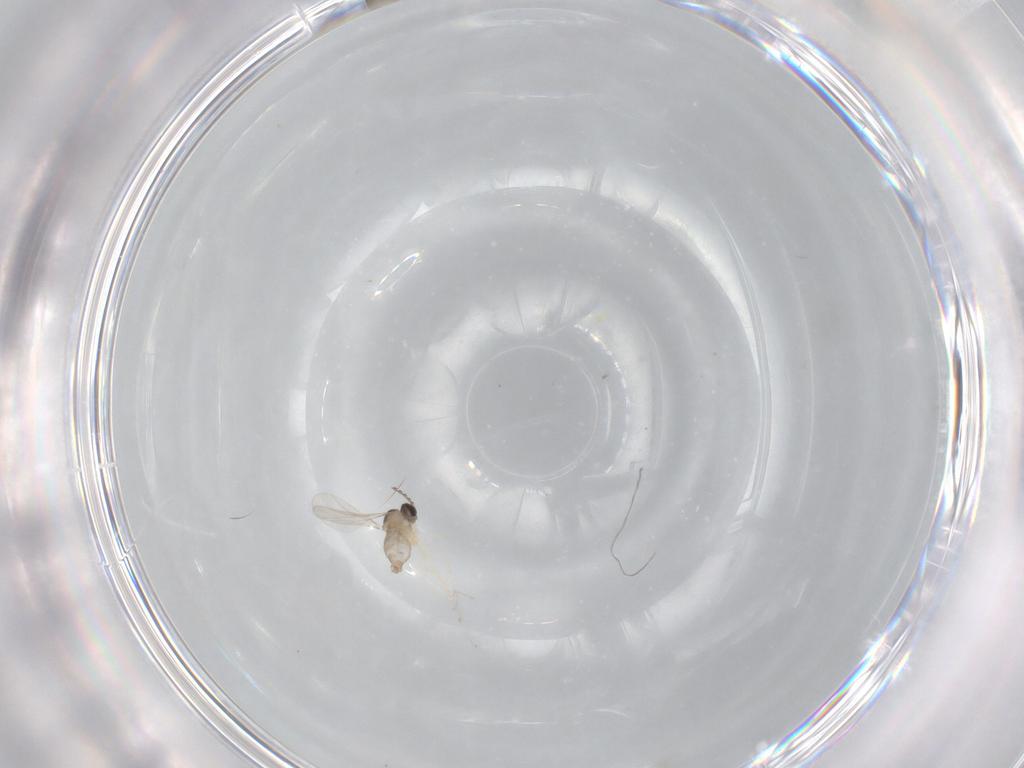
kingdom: Animalia
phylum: Arthropoda
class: Insecta
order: Diptera
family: Cecidomyiidae
